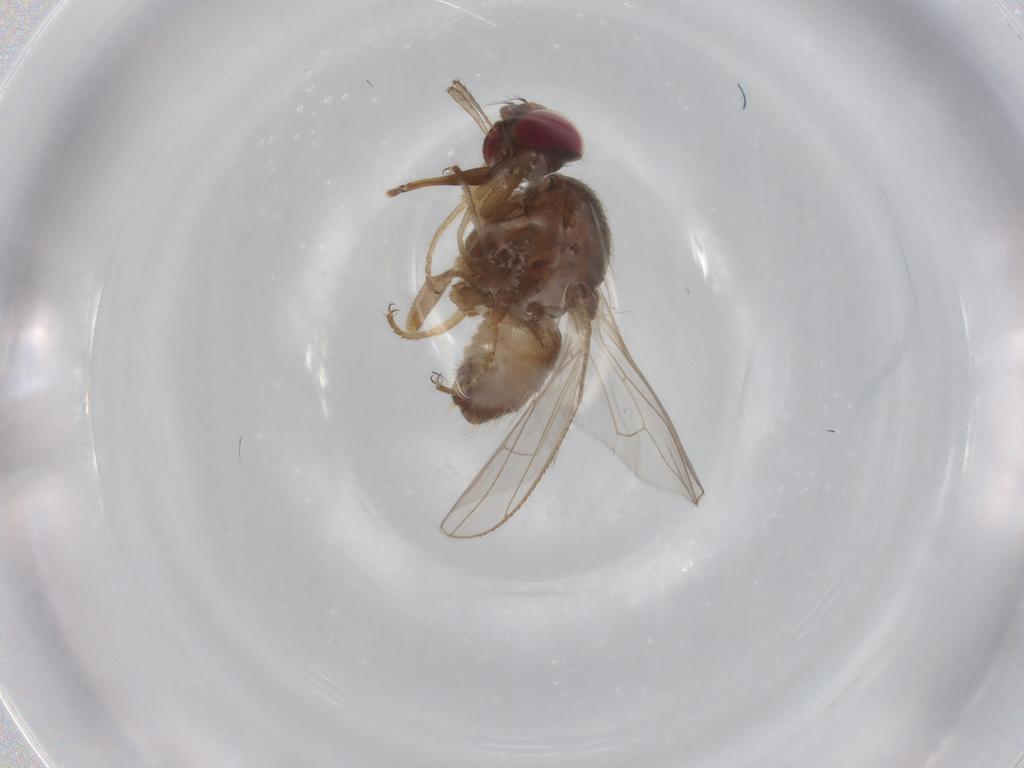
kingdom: Animalia
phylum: Arthropoda
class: Insecta
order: Diptera
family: Muscidae
